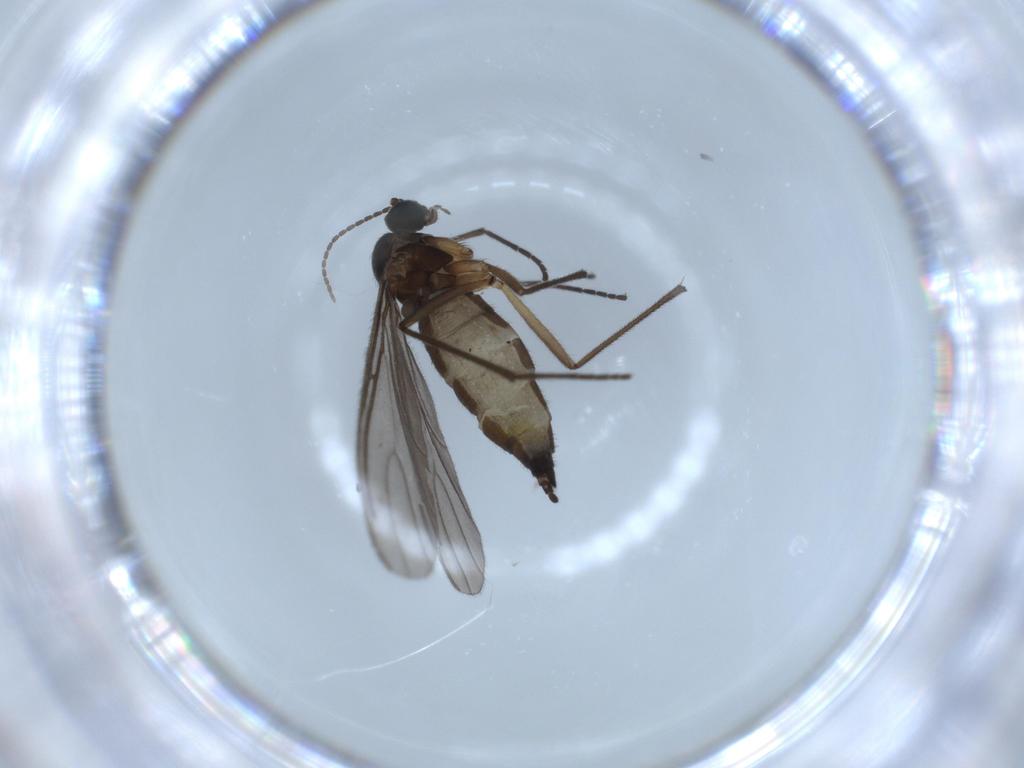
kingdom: Animalia
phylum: Arthropoda
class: Insecta
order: Diptera
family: Sciaridae
